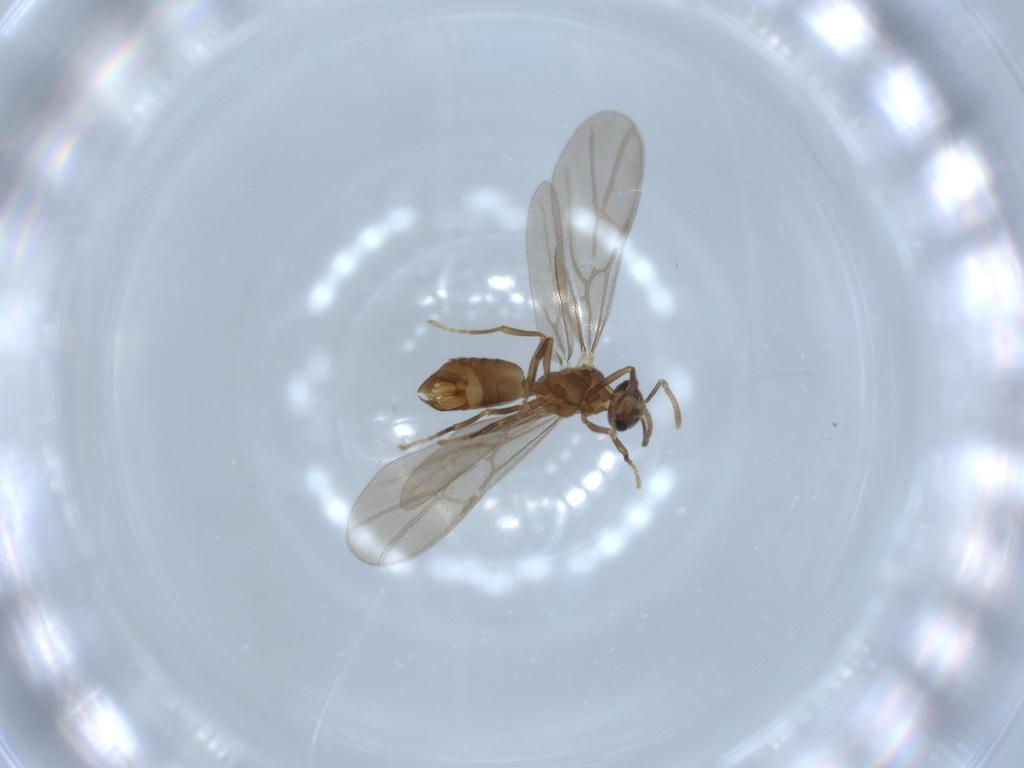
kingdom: Animalia
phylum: Arthropoda
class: Insecta
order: Hymenoptera
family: Formicidae
